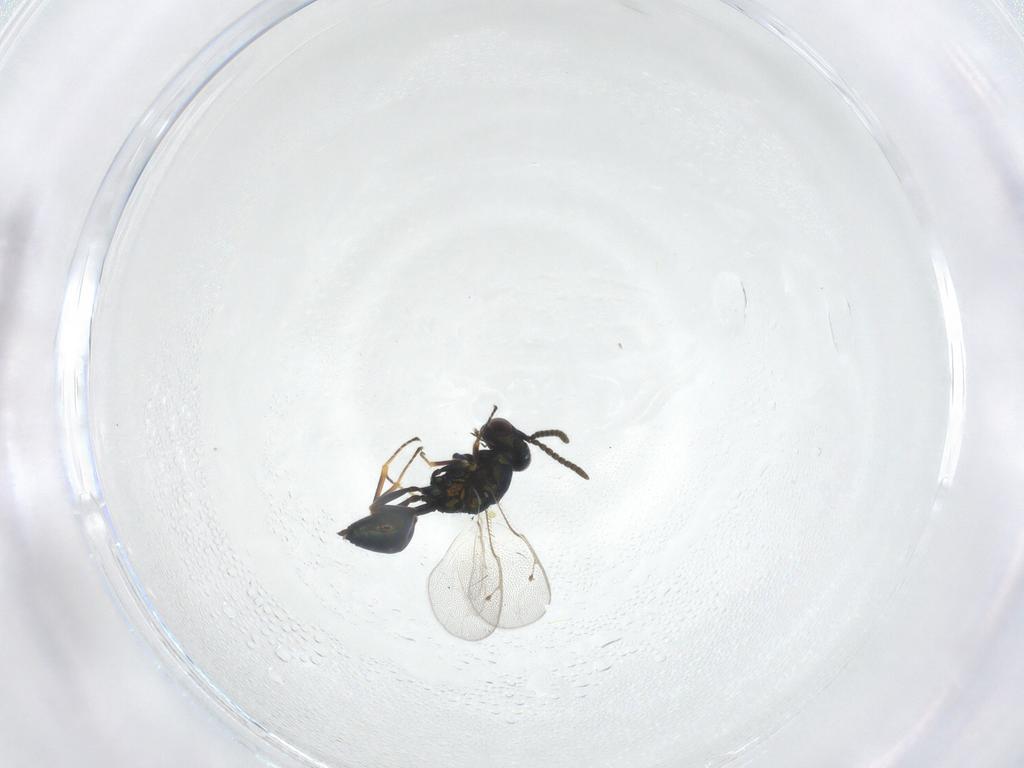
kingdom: Animalia
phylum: Arthropoda
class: Insecta
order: Hymenoptera
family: Pteromalidae
